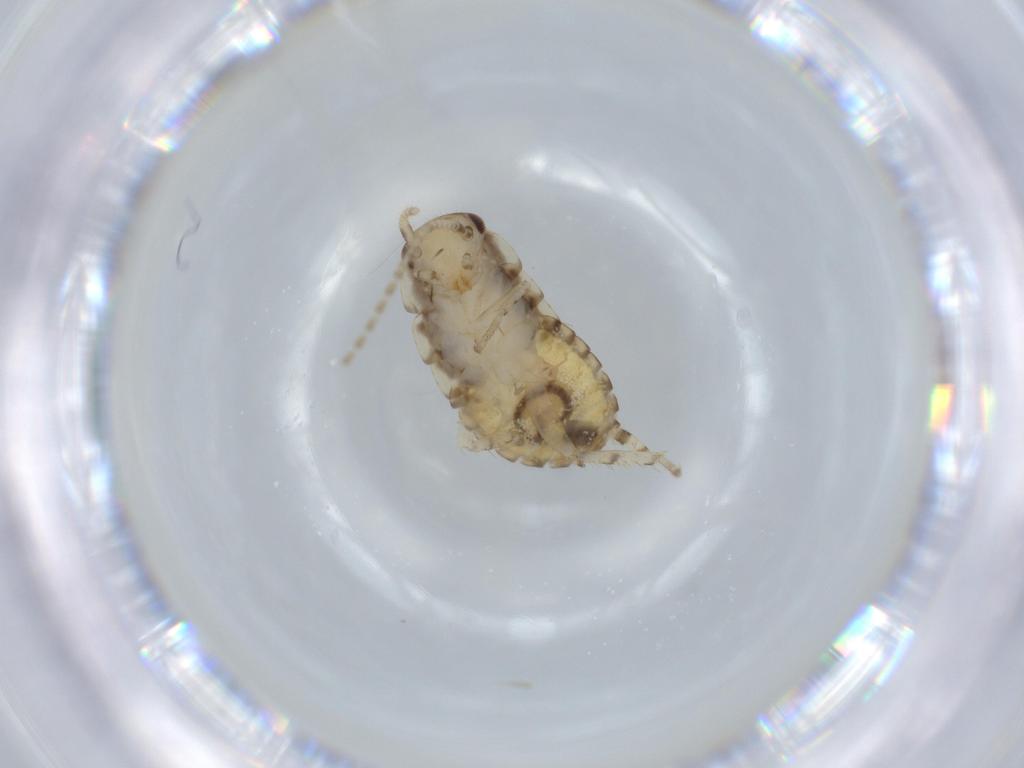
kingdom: Animalia
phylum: Arthropoda
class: Insecta
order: Blattodea
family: Ectobiidae
